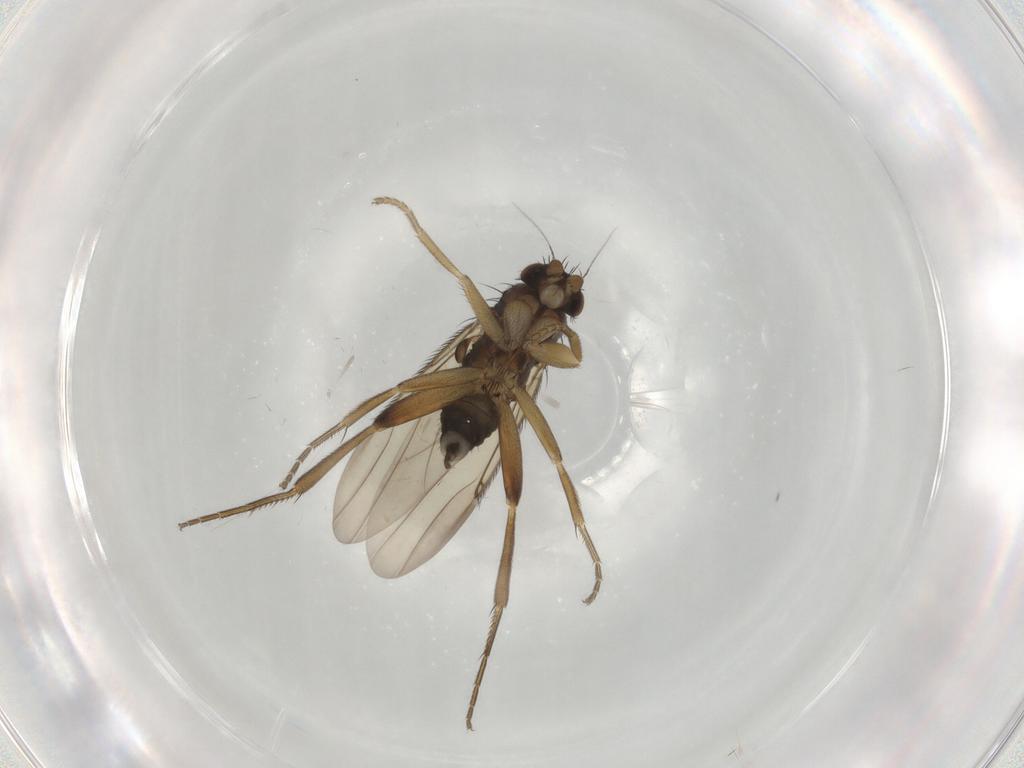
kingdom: Animalia
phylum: Arthropoda
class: Insecta
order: Diptera
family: Phoridae
